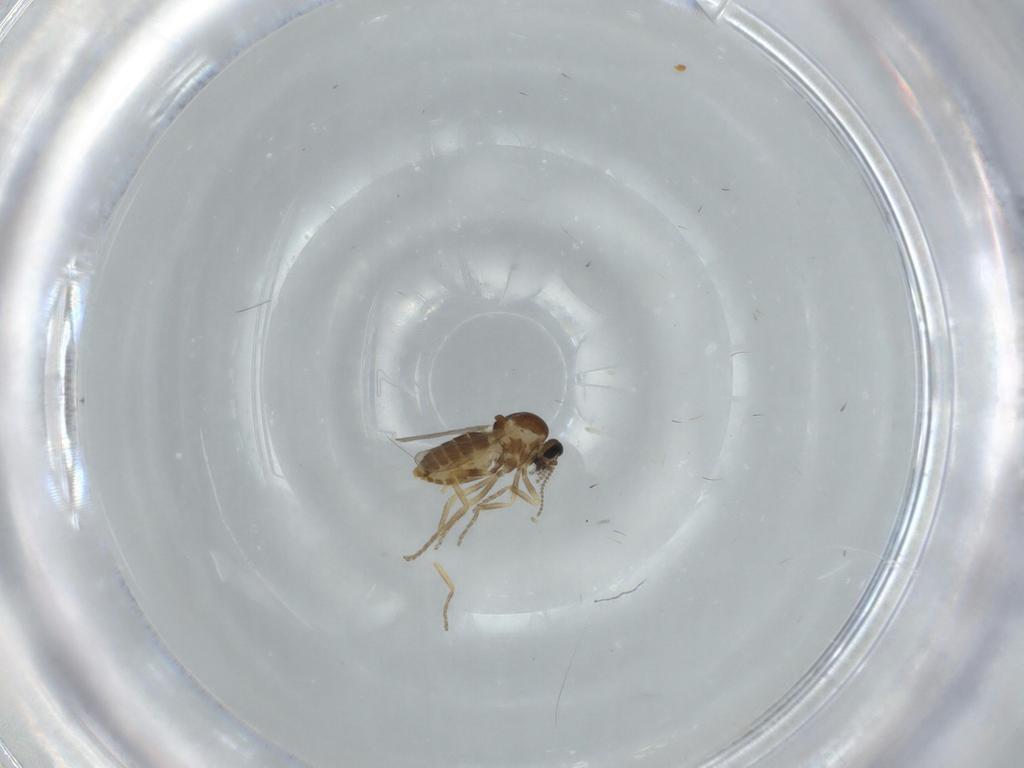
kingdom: Animalia
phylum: Arthropoda
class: Insecta
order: Diptera
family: Ceratopogonidae
